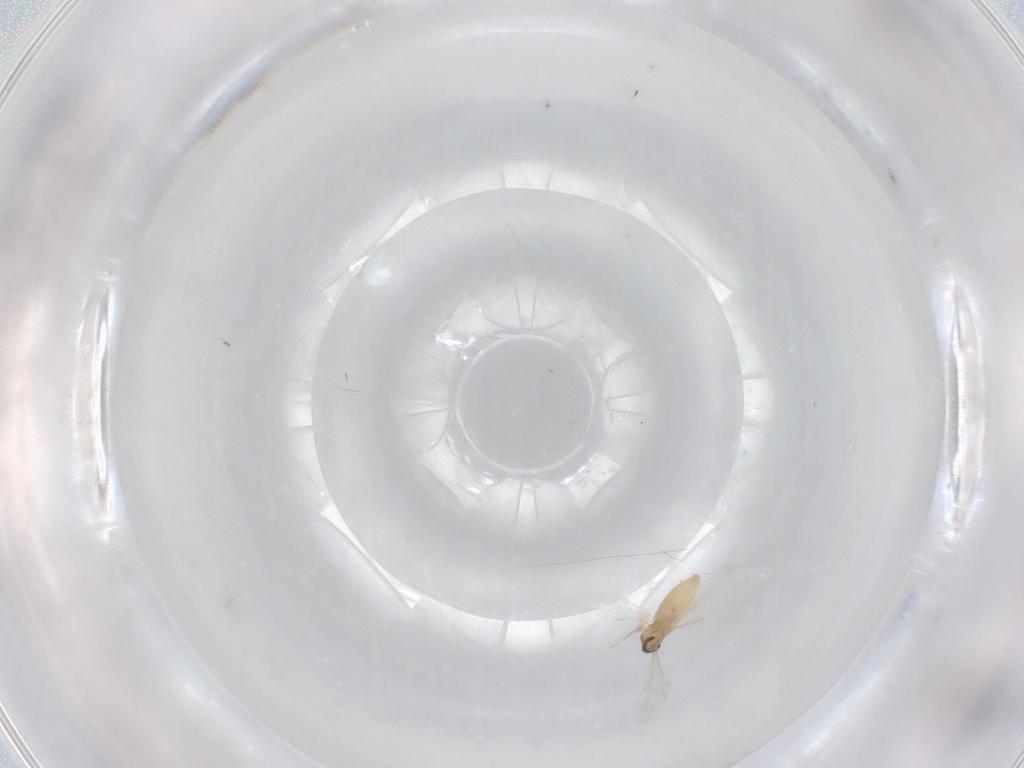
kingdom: Animalia
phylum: Arthropoda
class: Insecta
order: Diptera
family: Cecidomyiidae
